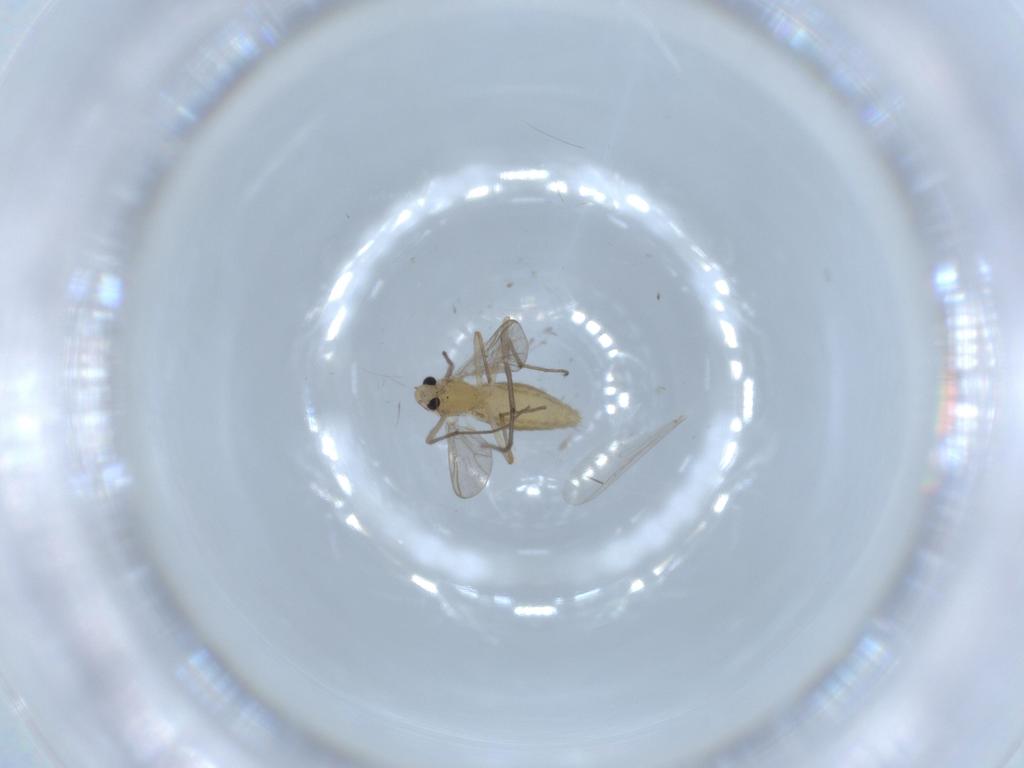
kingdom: Animalia
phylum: Arthropoda
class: Insecta
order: Diptera
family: Chironomidae
